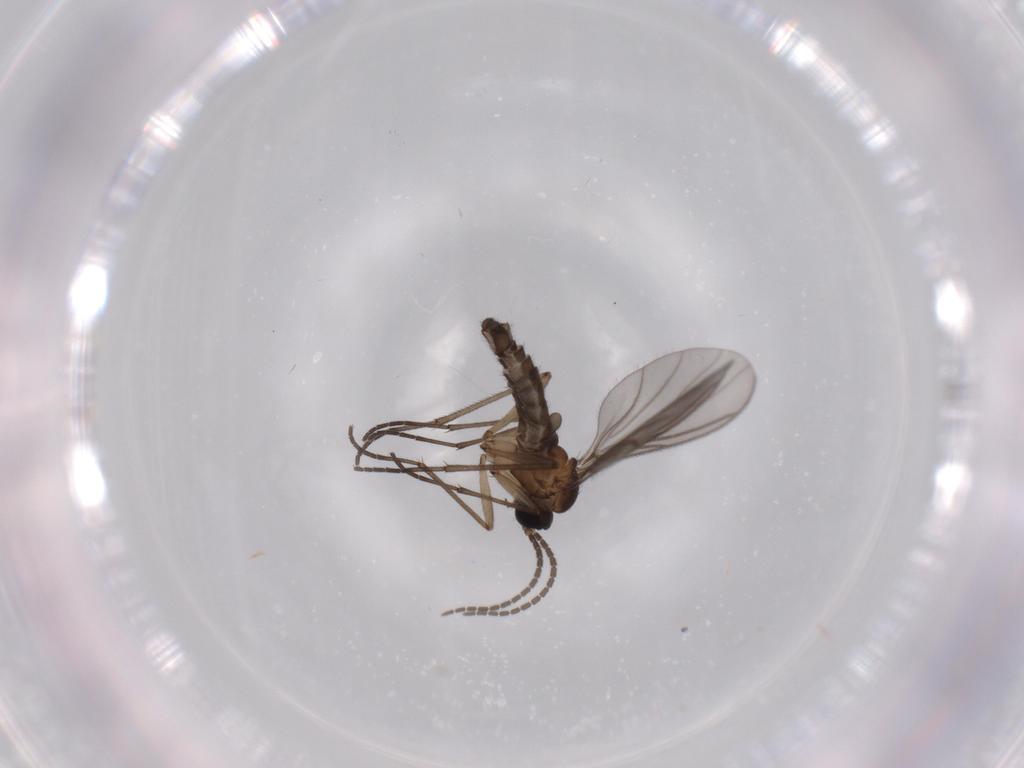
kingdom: Animalia
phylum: Arthropoda
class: Insecta
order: Diptera
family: Sciaridae
